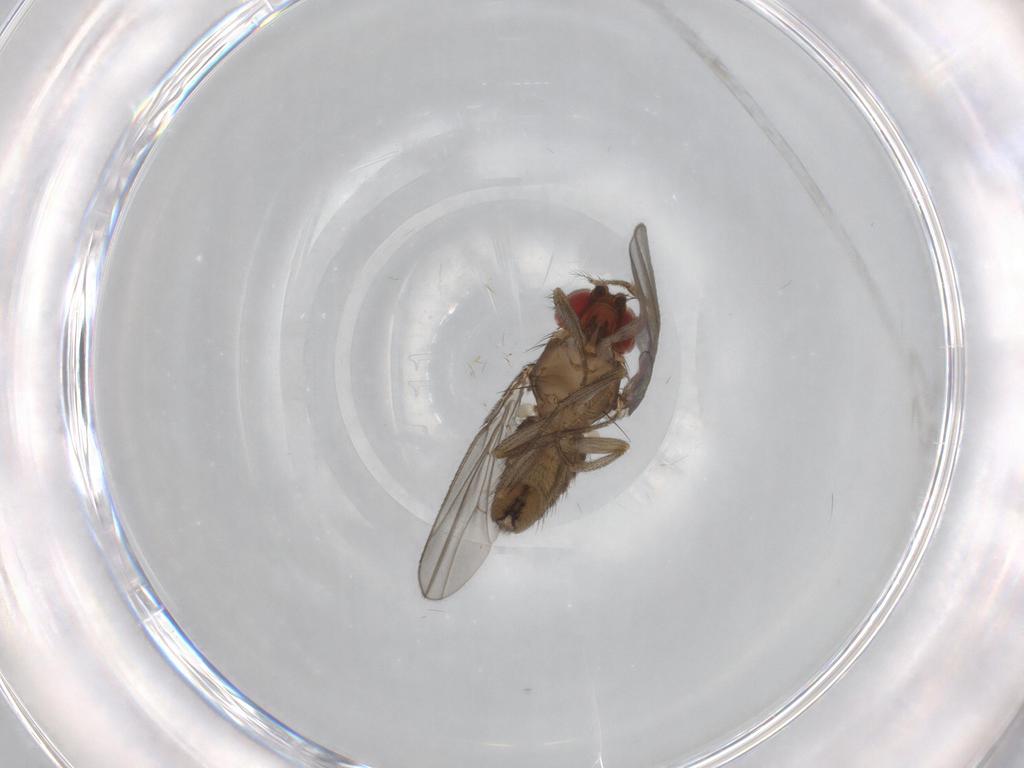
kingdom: Animalia
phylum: Arthropoda
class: Insecta
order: Diptera
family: Drosophilidae
